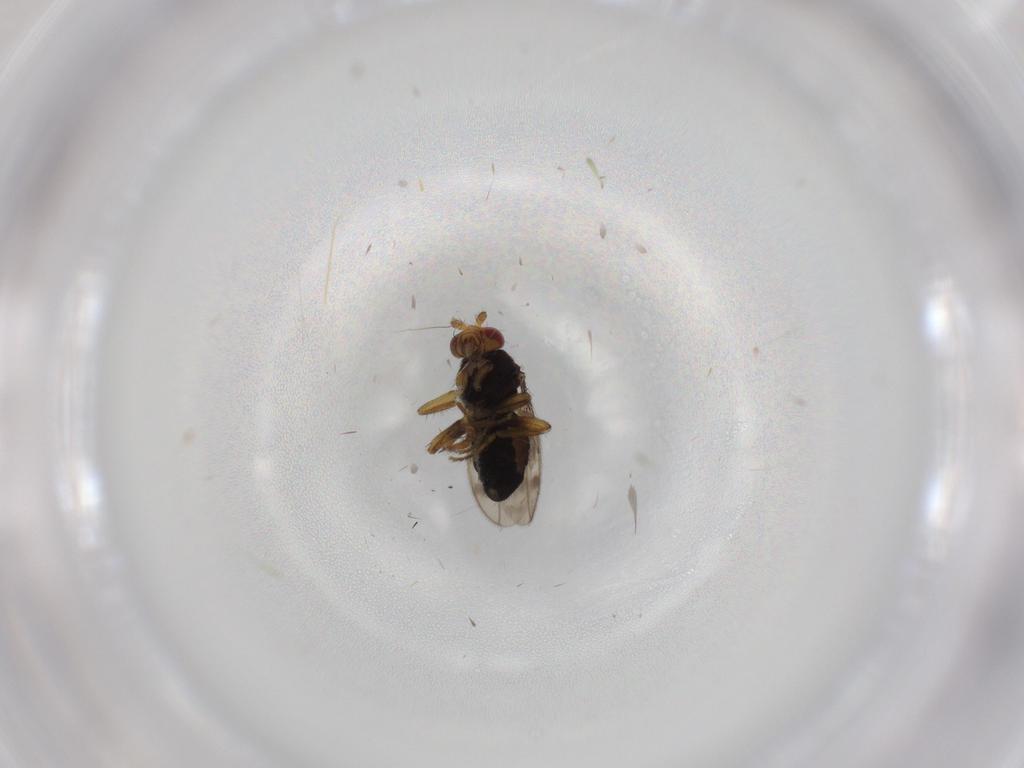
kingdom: Animalia
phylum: Arthropoda
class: Insecta
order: Diptera
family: Sphaeroceridae
